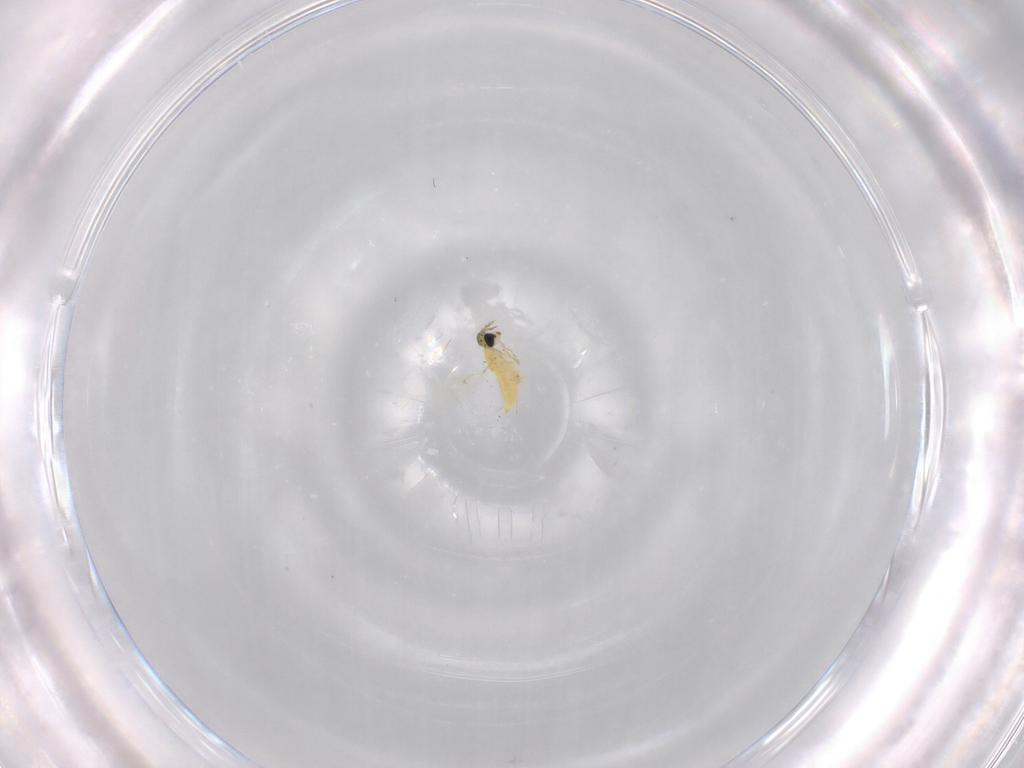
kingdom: Animalia
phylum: Arthropoda
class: Insecta
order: Hymenoptera
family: Trichogrammatidae
